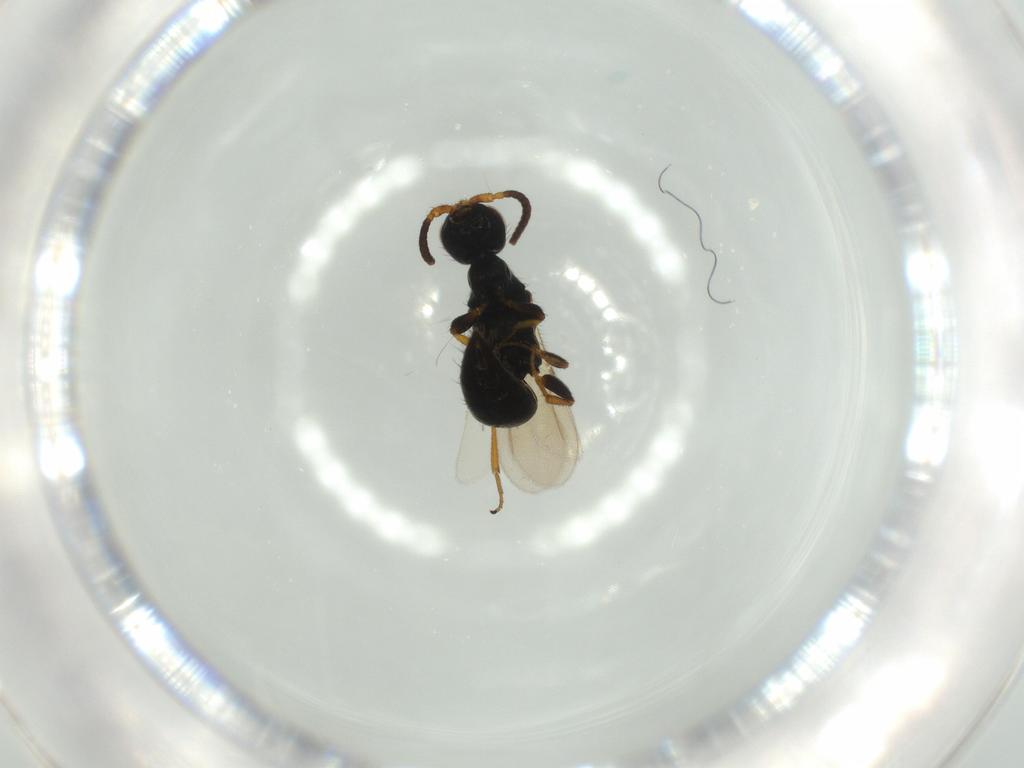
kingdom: Animalia
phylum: Arthropoda
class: Insecta
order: Hymenoptera
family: Bethylidae
